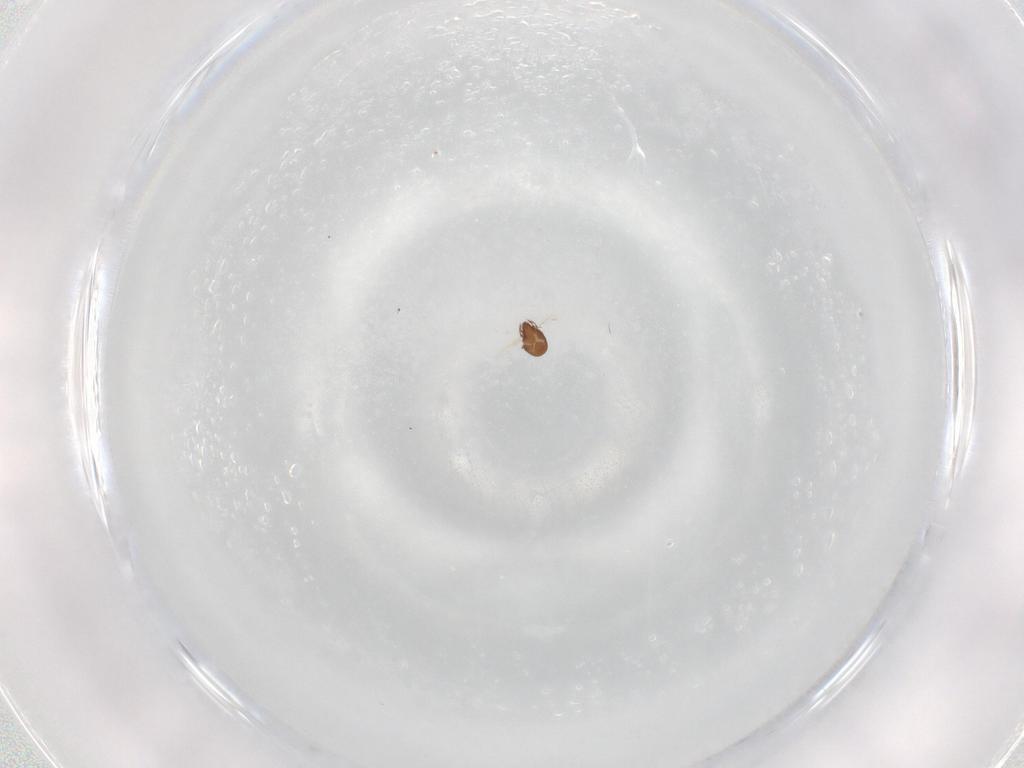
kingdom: Animalia
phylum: Arthropoda
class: Arachnida
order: Sarcoptiformes
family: Tectocepheidae
